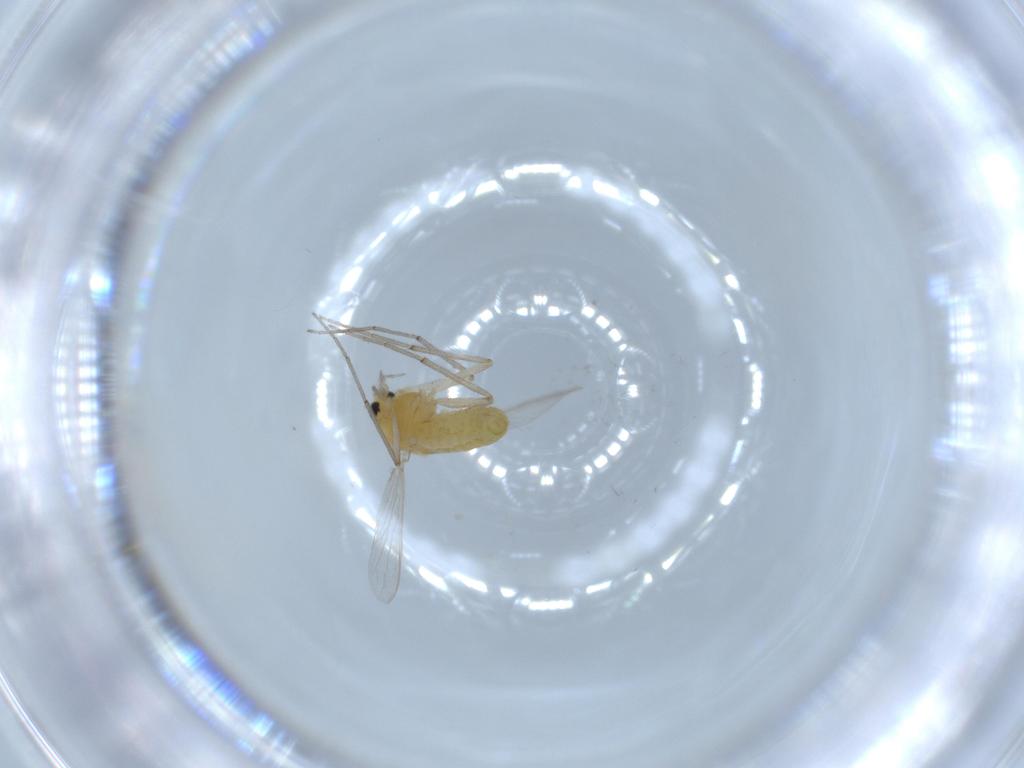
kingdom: Animalia
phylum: Arthropoda
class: Insecta
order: Diptera
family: Chironomidae
